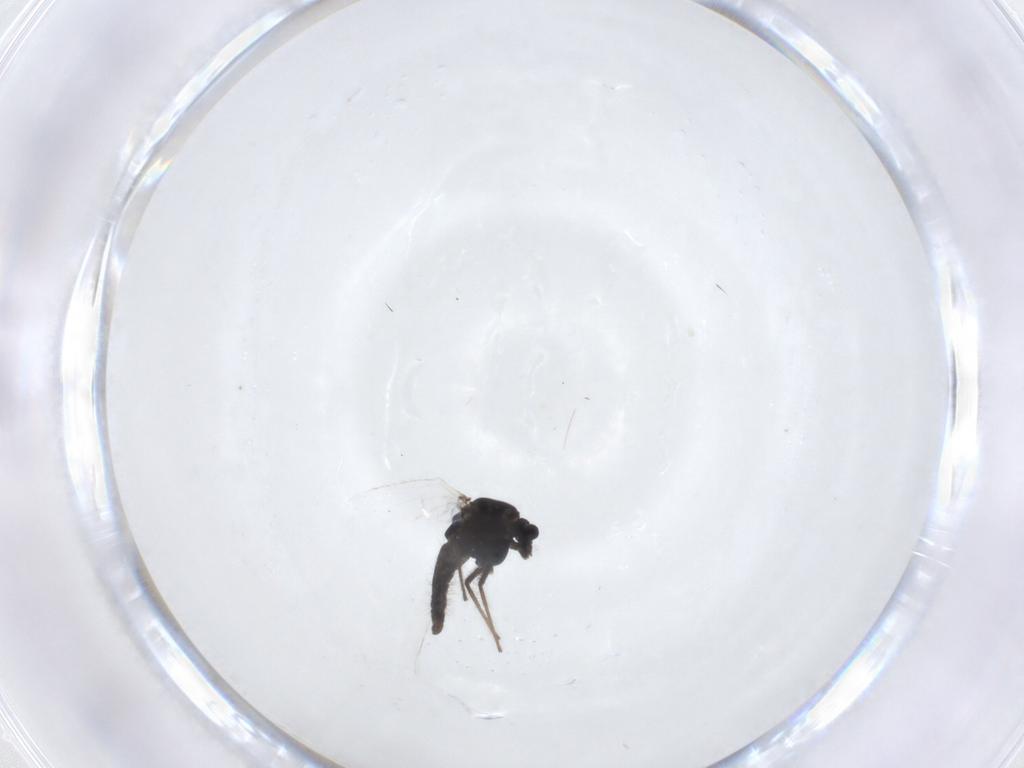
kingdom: Animalia
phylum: Arthropoda
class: Insecta
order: Diptera
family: Chironomidae
